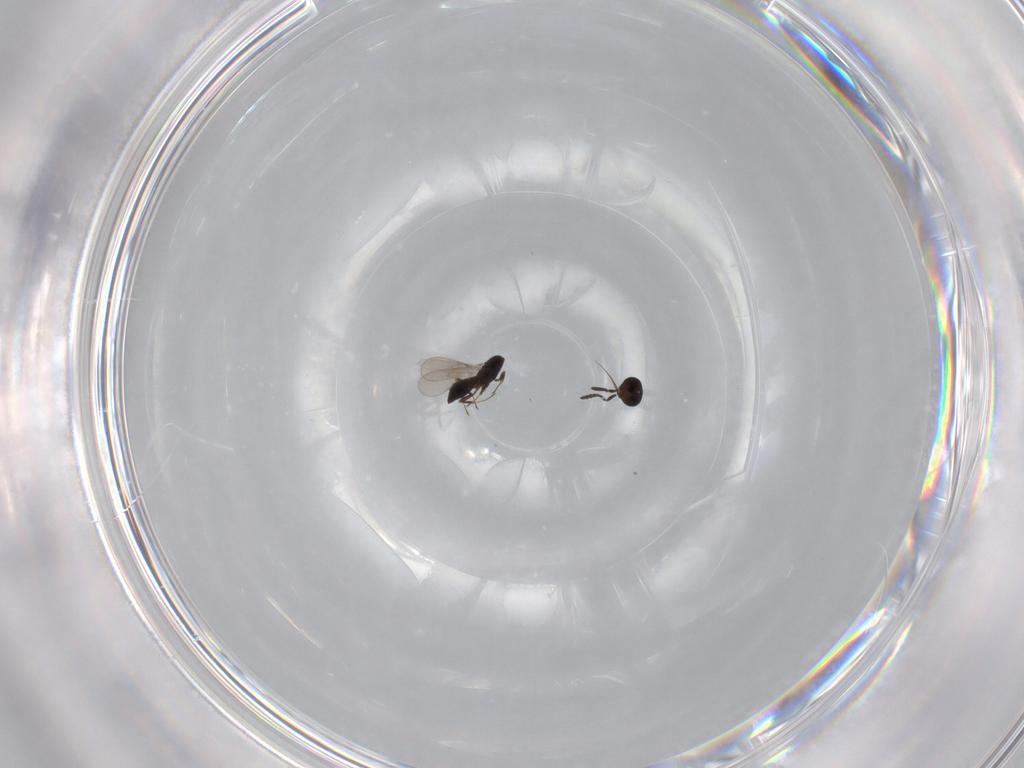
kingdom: Animalia
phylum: Arthropoda
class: Insecta
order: Hymenoptera
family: Scelionidae
